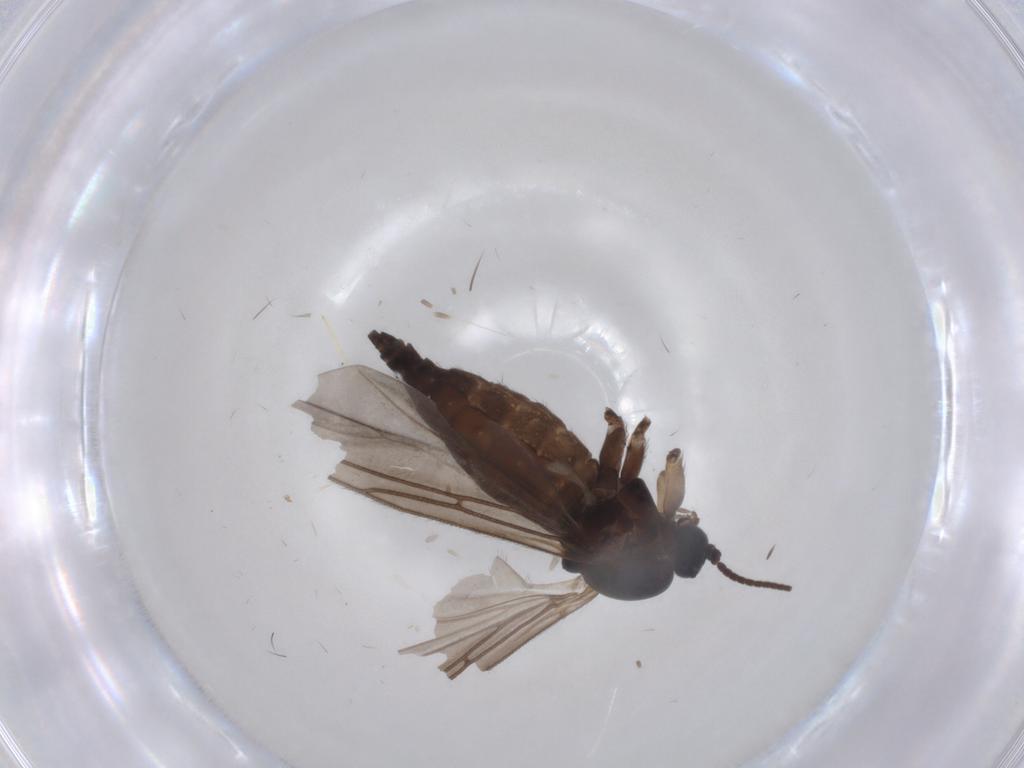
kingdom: Animalia
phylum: Arthropoda
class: Insecta
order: Diptera
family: Sciaridae
